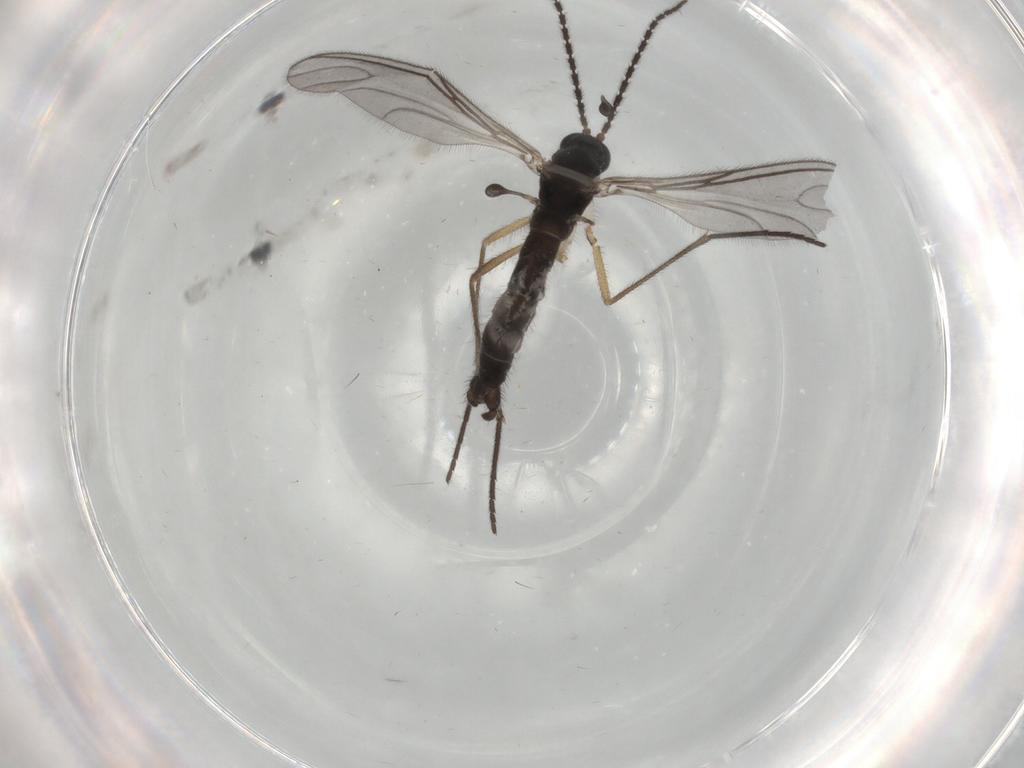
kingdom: Animalia
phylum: Arthropoda
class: Insecta
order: Diptera
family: Sciaridae
